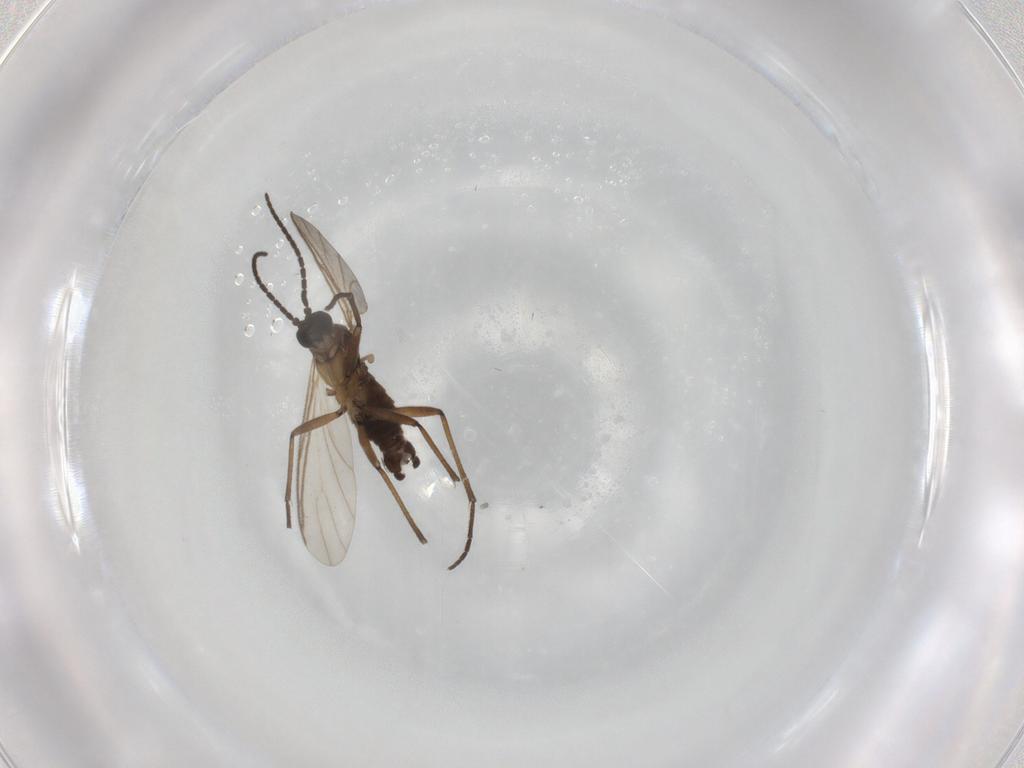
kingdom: Animalia
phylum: Arthropoda
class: Insecta
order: Diptera
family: Sciaridae
